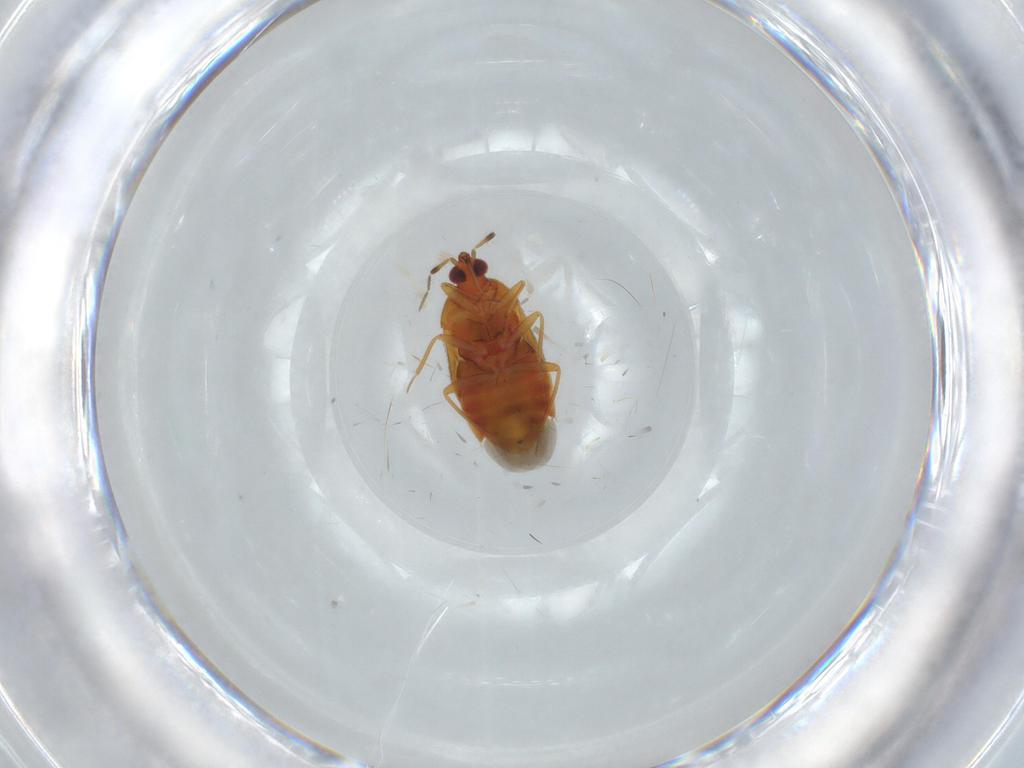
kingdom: Animalia
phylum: Arthropoda
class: Insecta
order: Hemiptera
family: Anthocoridae
